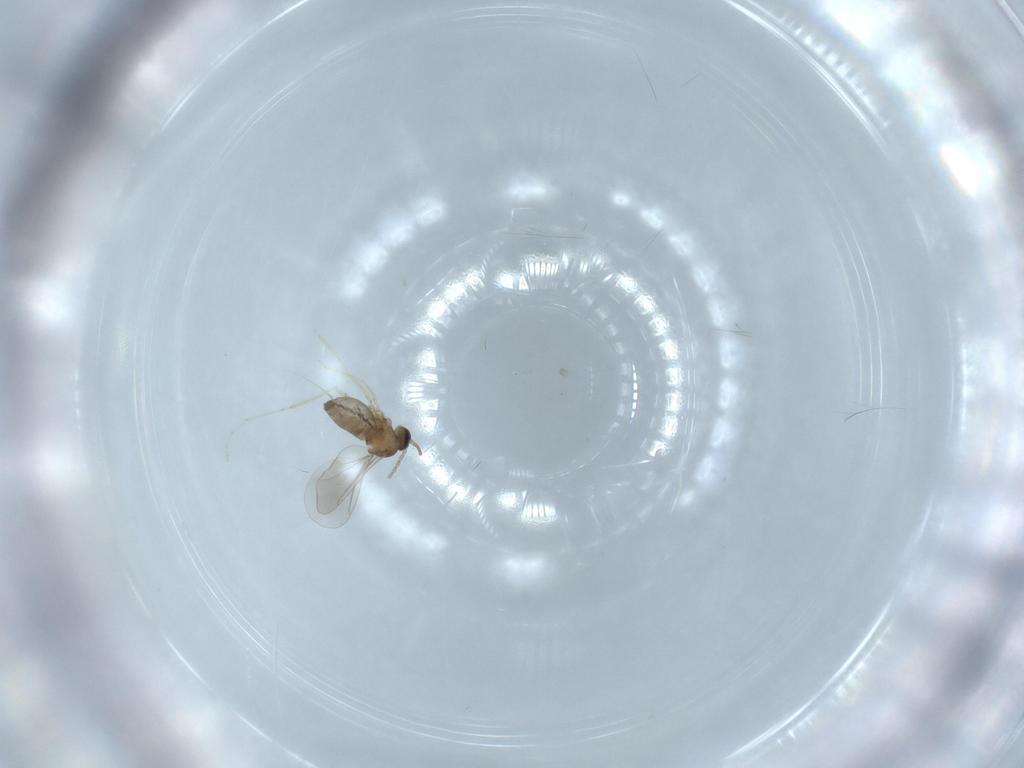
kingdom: Animalia
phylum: Arthropoda
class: Insecta
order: Diptera
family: Cecidomyiidae
